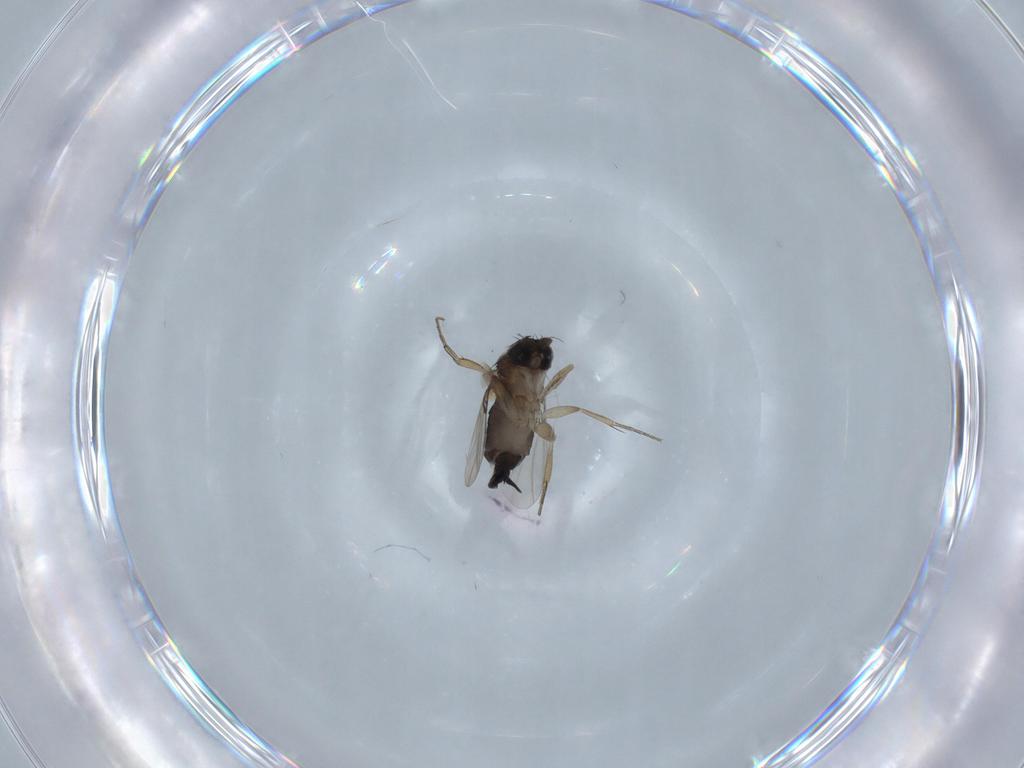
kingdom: Animalia
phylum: Arthropoda
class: Insecta
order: Diptera
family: Phoridae
